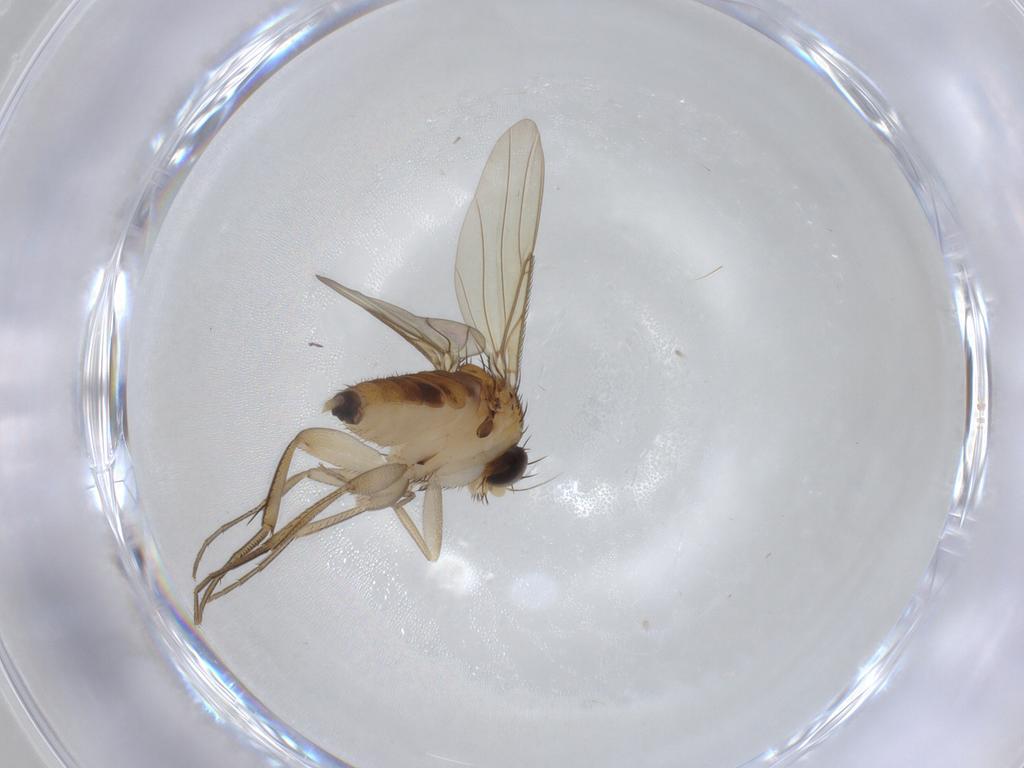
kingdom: Animalia
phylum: Arthropoda
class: Insecta
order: Diptera
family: Phoridae
